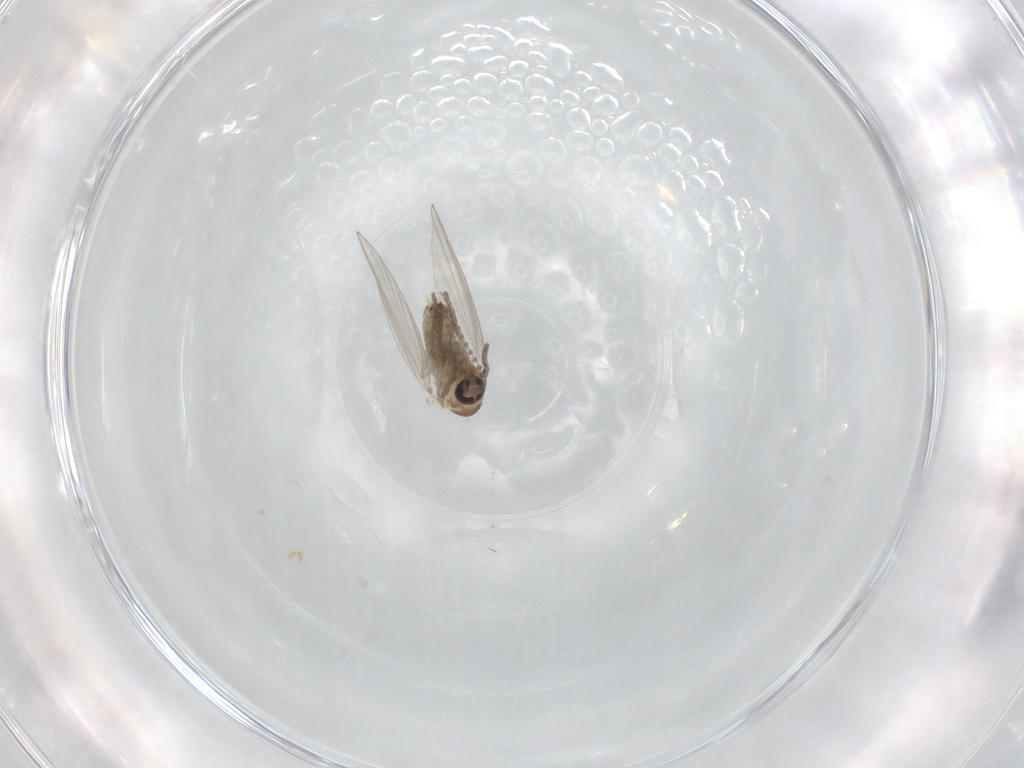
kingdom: Animalia
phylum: Arthropoda
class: Insecta
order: Diptera
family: Psychodidae
